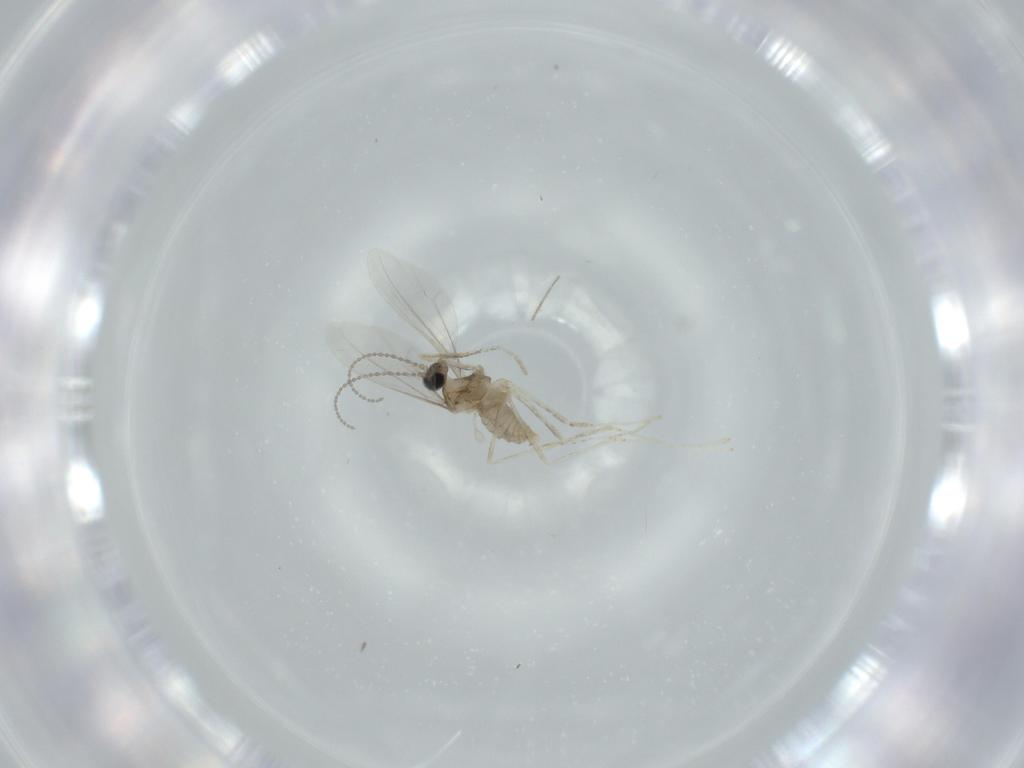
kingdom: Animalia
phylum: Arthropoda
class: Insecta
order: Diptera
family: Cecidomyiidae
